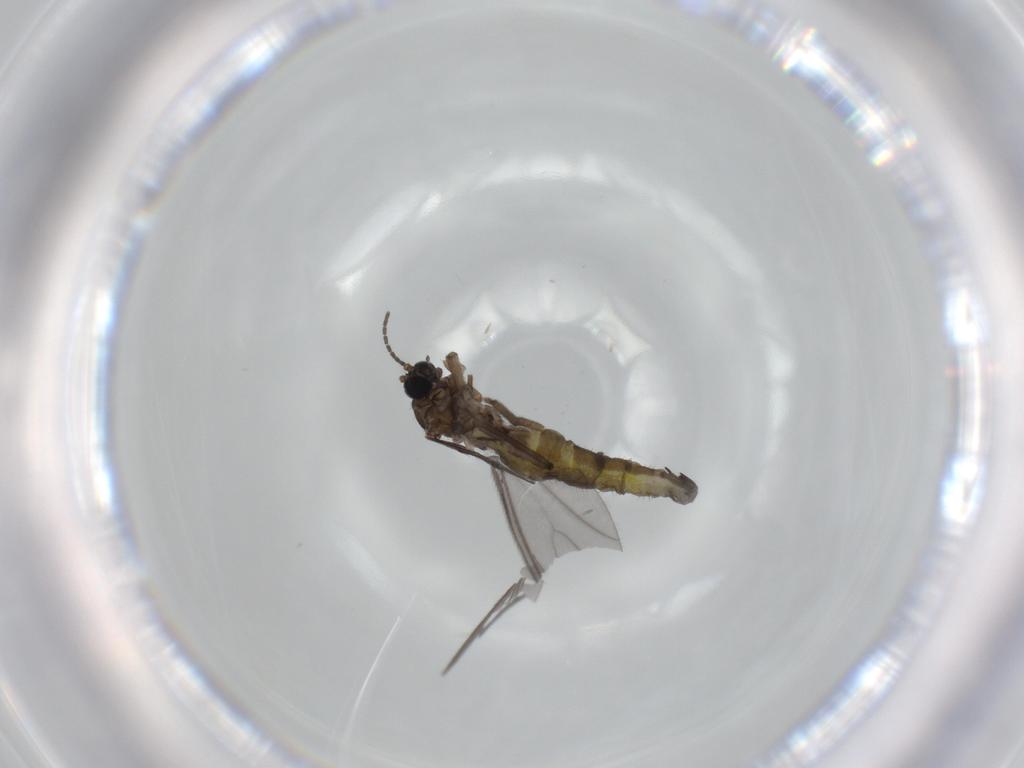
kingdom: Animalia
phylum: Arthropoda
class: Insecta
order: Diptera
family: Sciaridae
